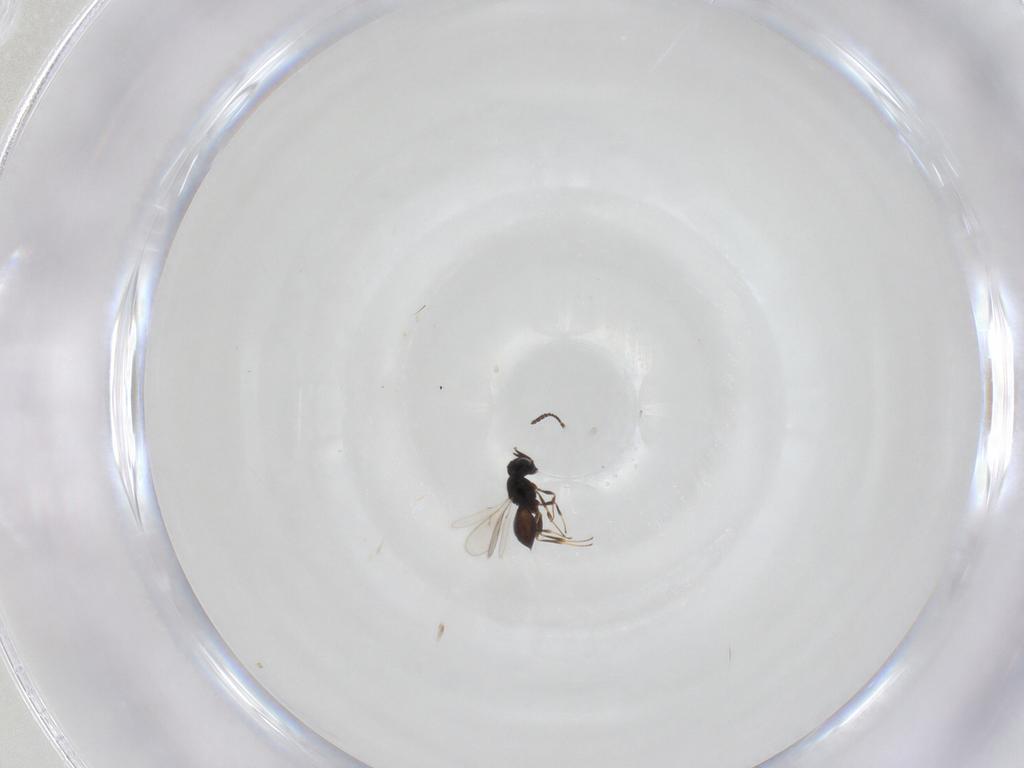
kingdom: Animalia
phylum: Arthropoda
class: Insecta
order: Hymenoptera
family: Scelionidae
